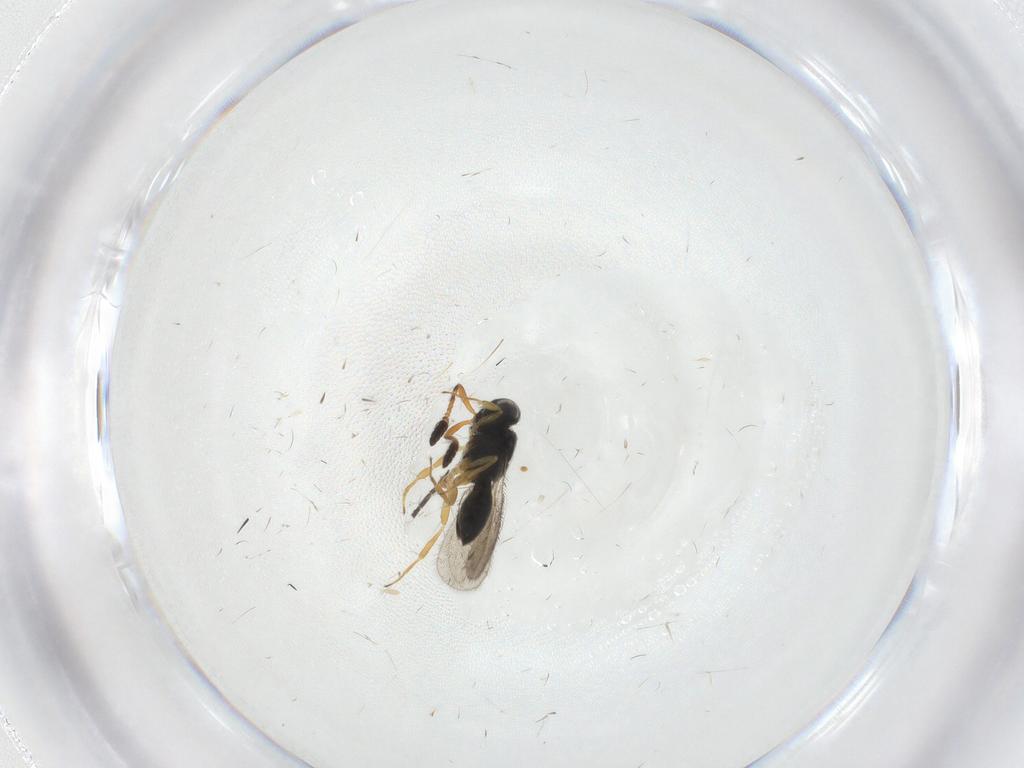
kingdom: Animalia
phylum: Arthropoda
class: Insecta
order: Hymenoptera
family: Scelionidae
